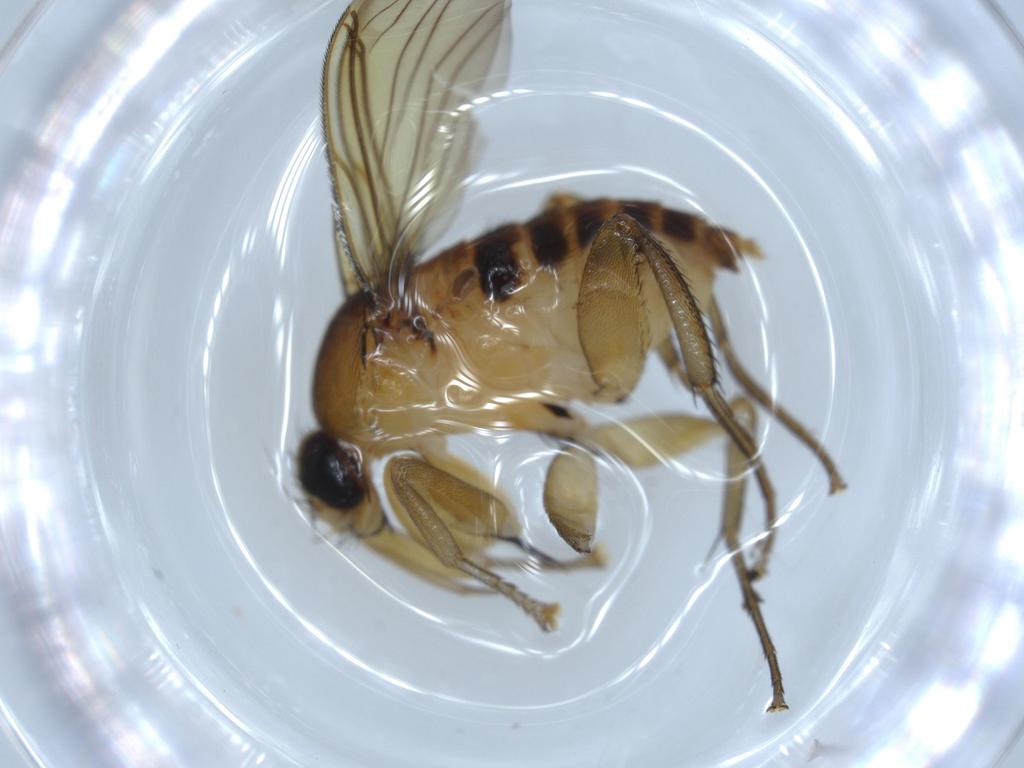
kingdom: Animalia
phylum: Arthropoda
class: Insecta
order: Diptera
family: Phoridae
